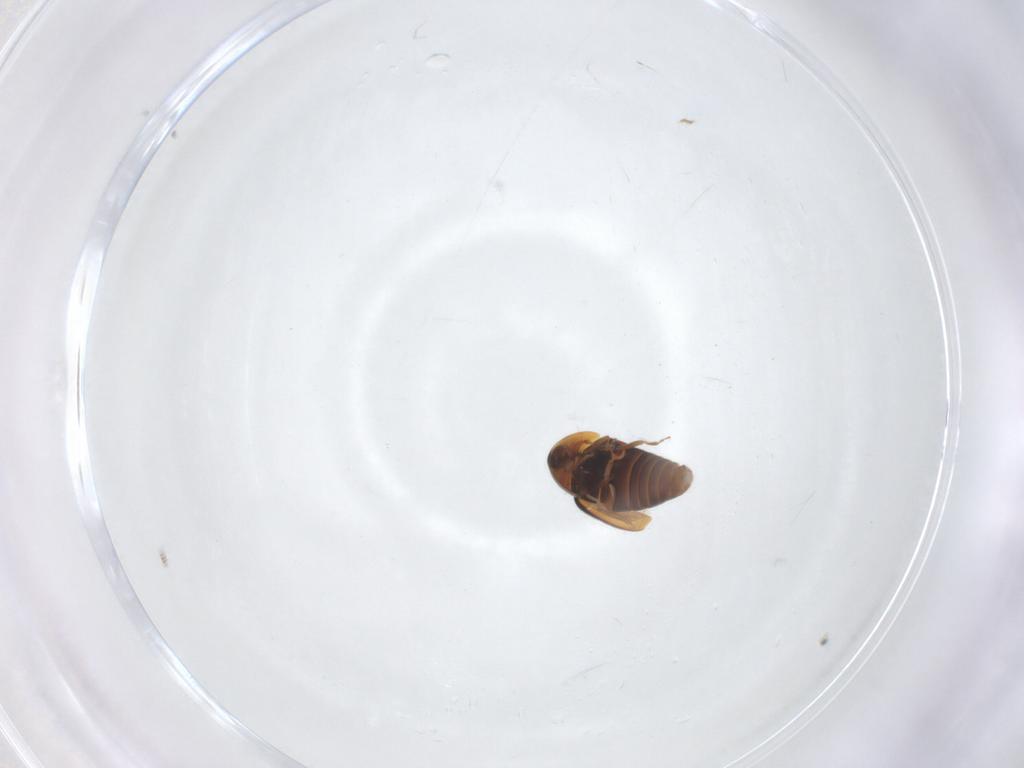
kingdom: Animalia
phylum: Arthropoda
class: Insecta
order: Coleoptera
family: Corylophidae
